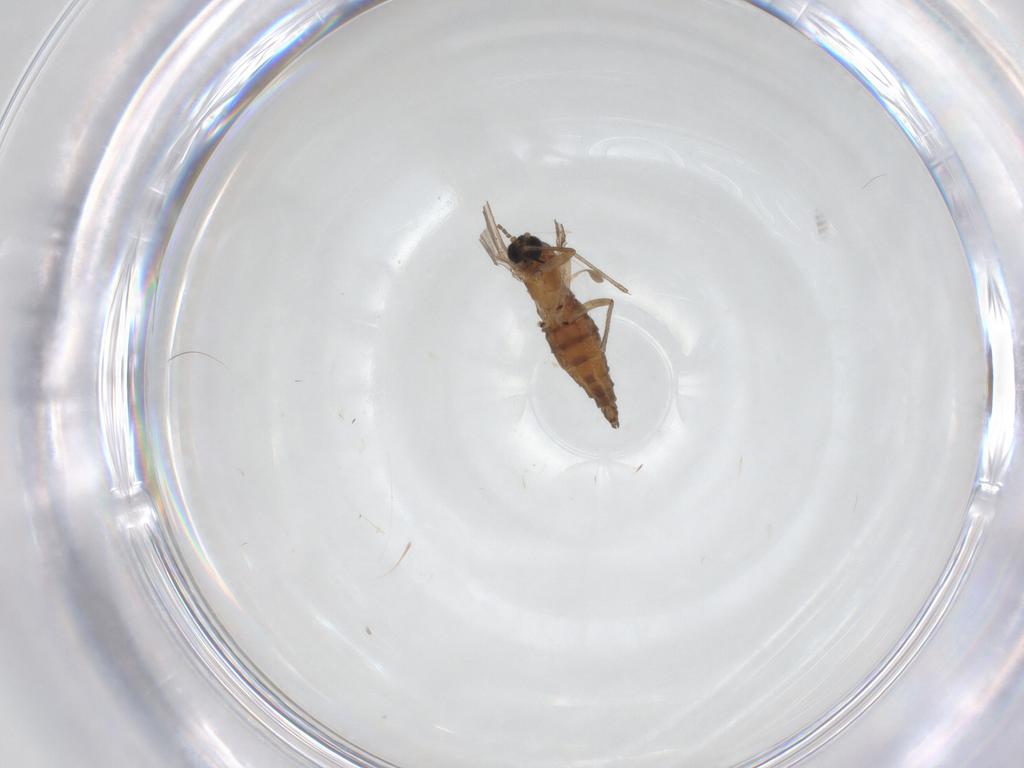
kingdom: Animalia
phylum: Arthropoda
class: Insecta
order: Diptera
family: Sciaridae
